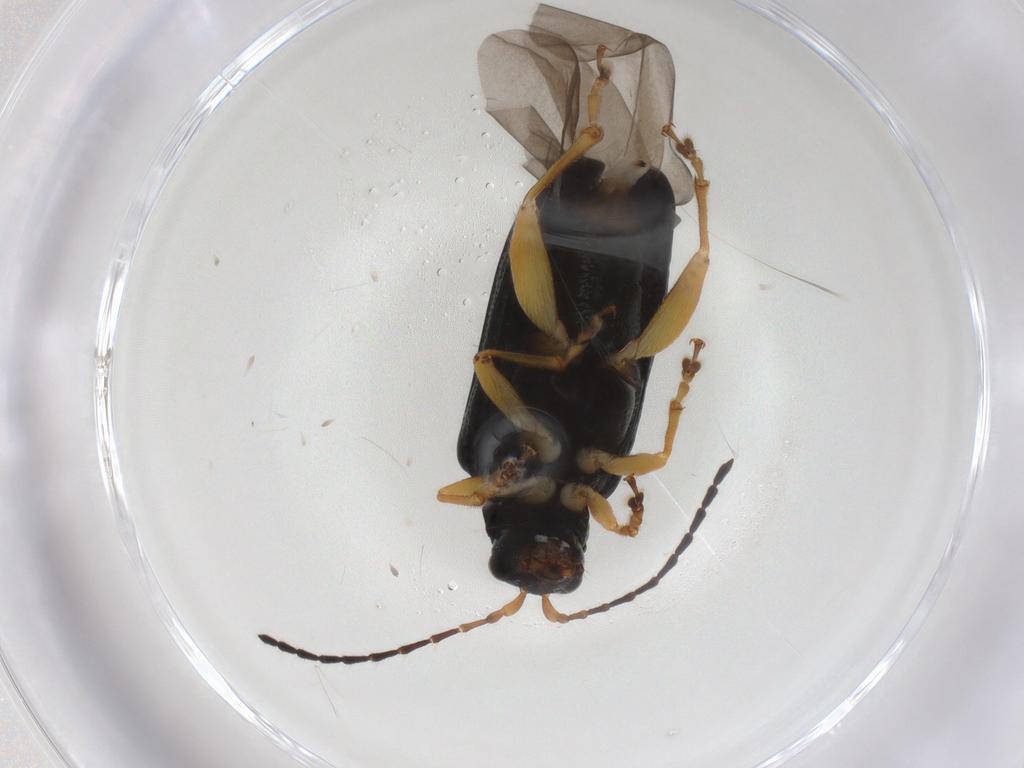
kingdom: Animalia
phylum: Arthropoda
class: Insecta
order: Coleoptera
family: Chrysomelidae
